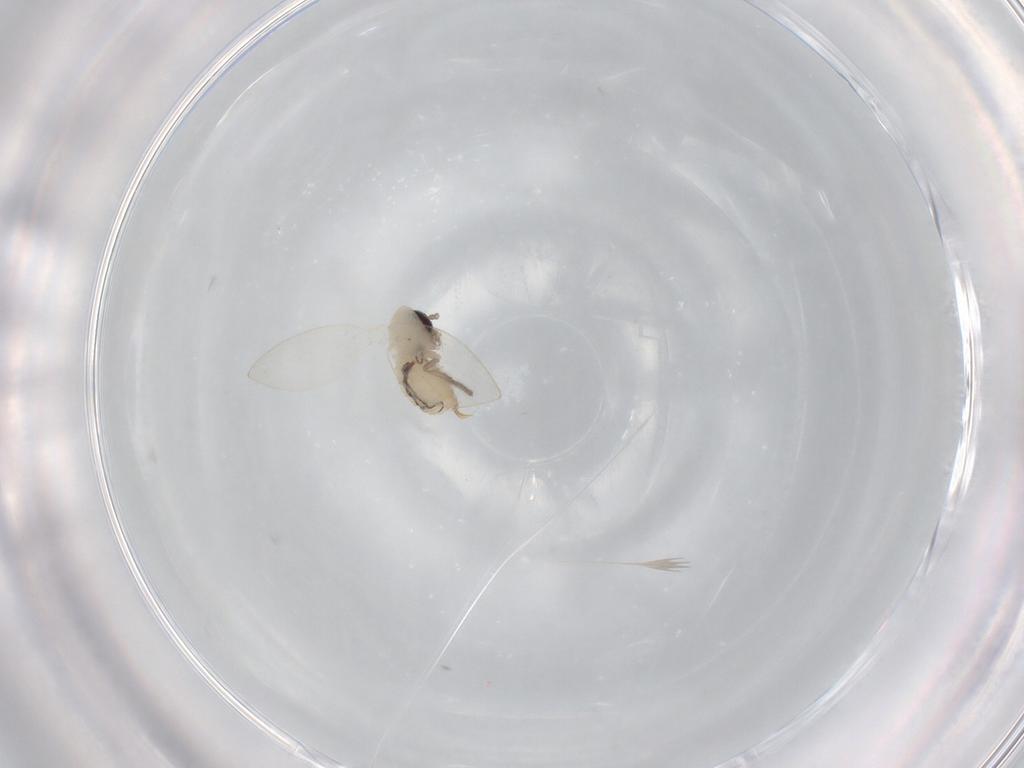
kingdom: Animalia
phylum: Arthropoda
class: Insecta
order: Diptera
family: Psychodidae
